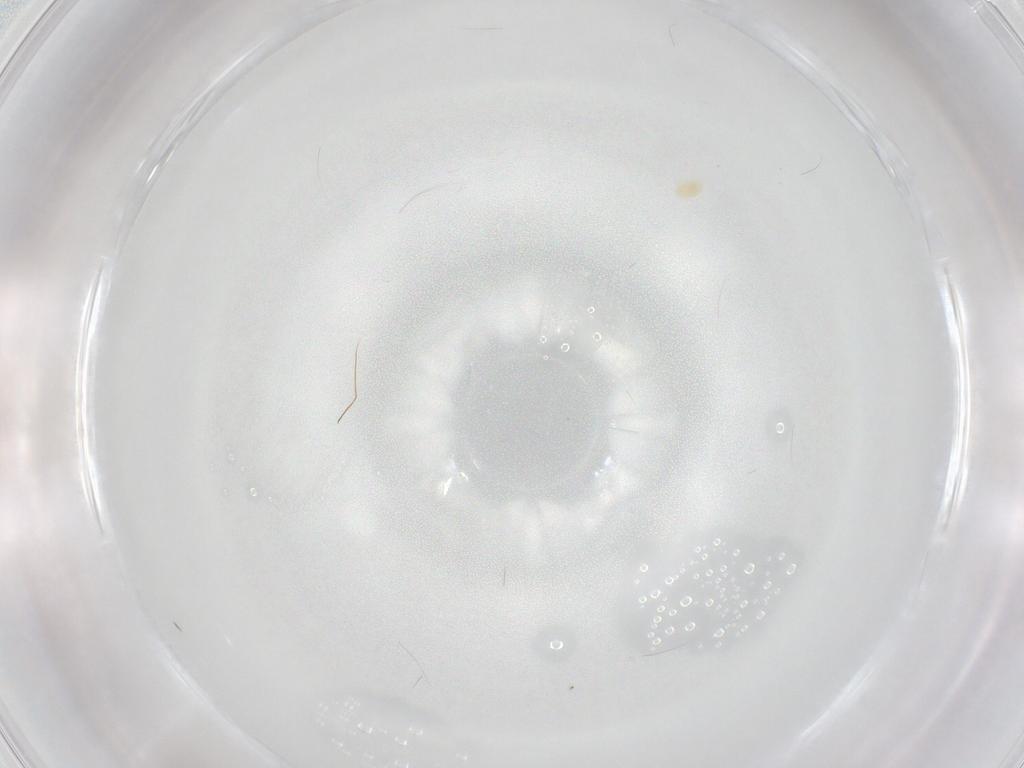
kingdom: Animalia
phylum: Arthropoda
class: Arachnida
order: Trombidiformes
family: Eupodidae
